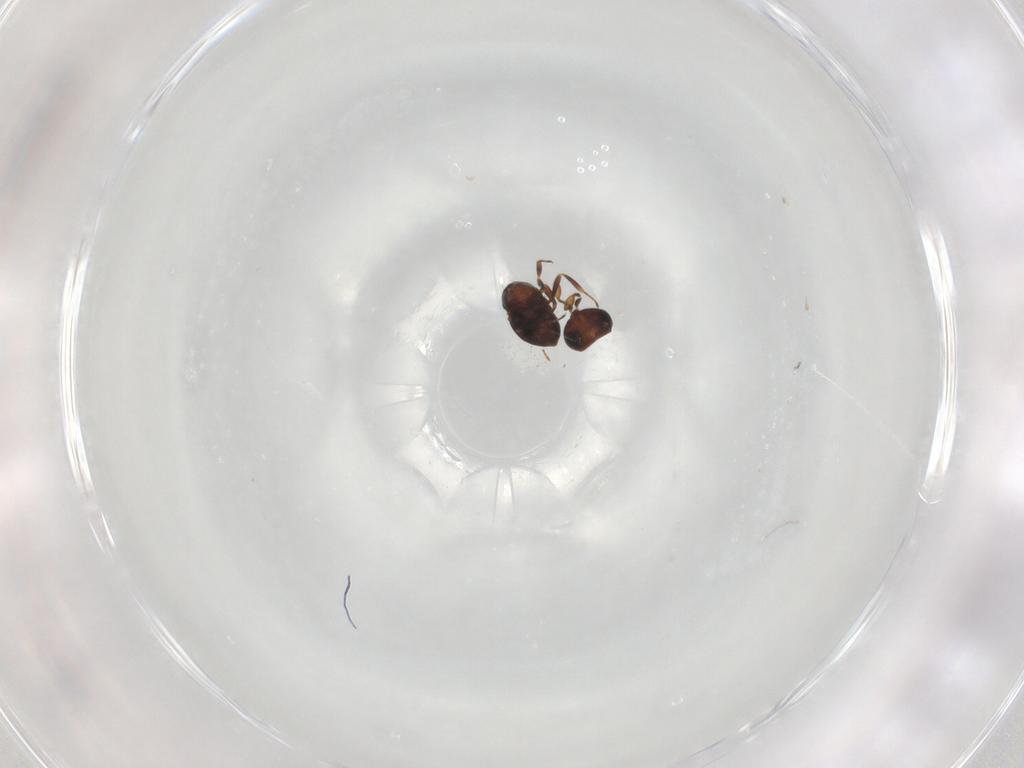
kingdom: Animalia
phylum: Arthropoda
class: Insecta
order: Hymenoptera
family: Scelionidae
